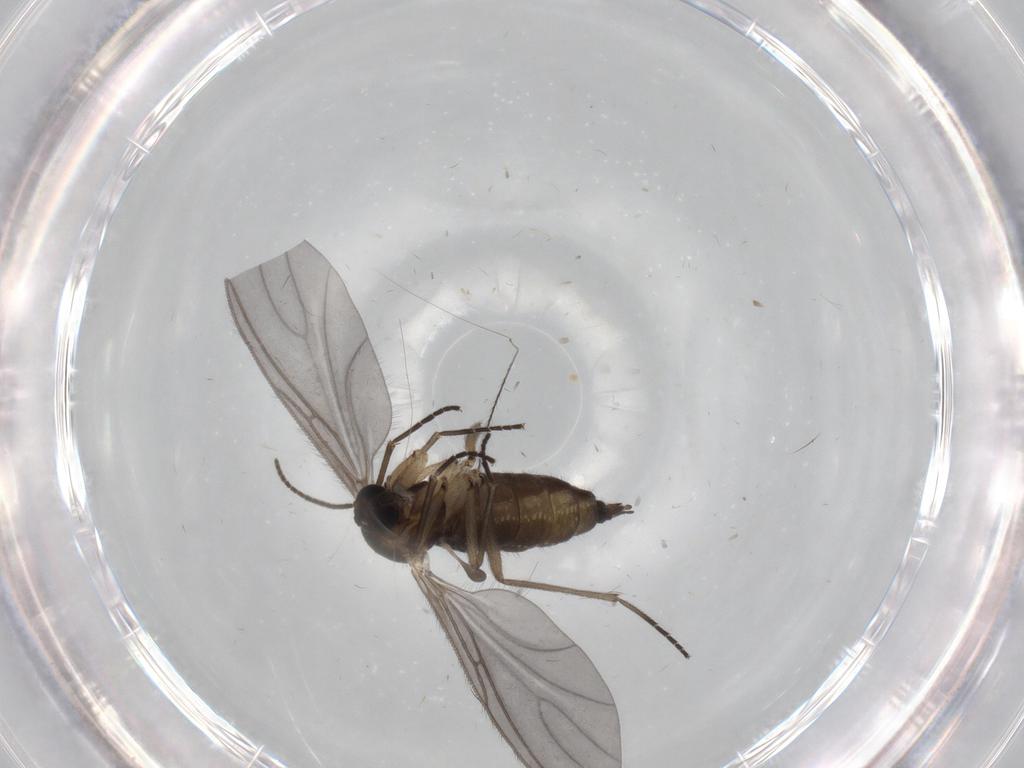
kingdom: Animalia
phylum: Arthropoda
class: Insecta
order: Diptera
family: Sciaridae
